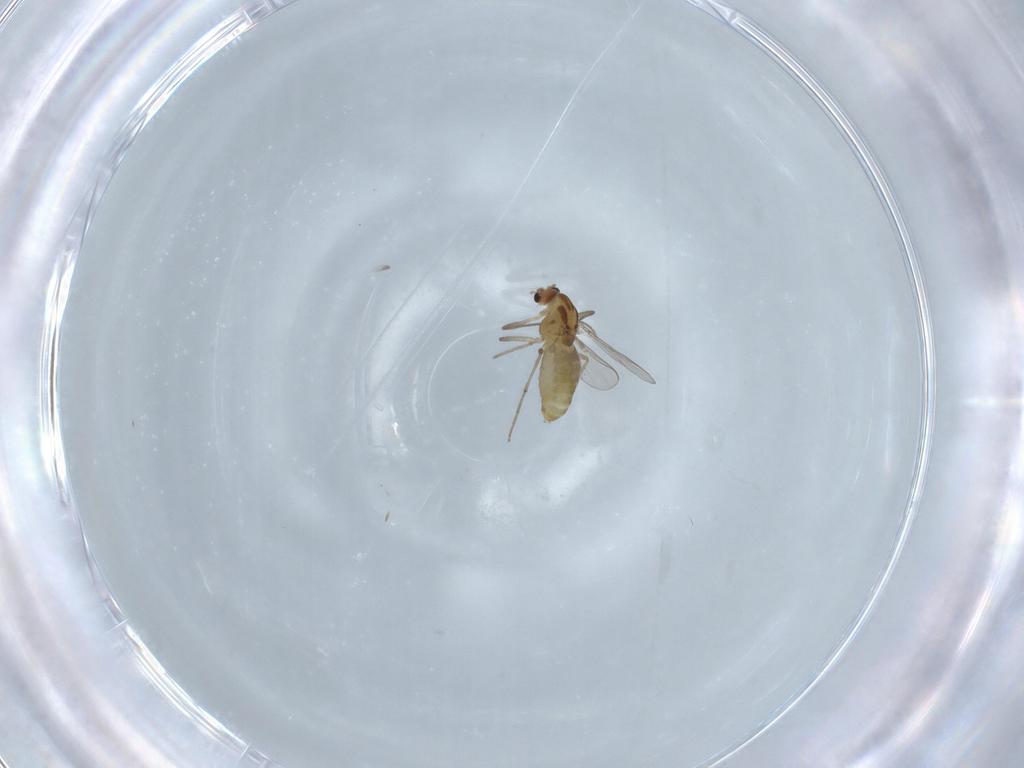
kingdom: Animalia
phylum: Arthropoda
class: Insecta
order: Diptera
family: Chironomidae
